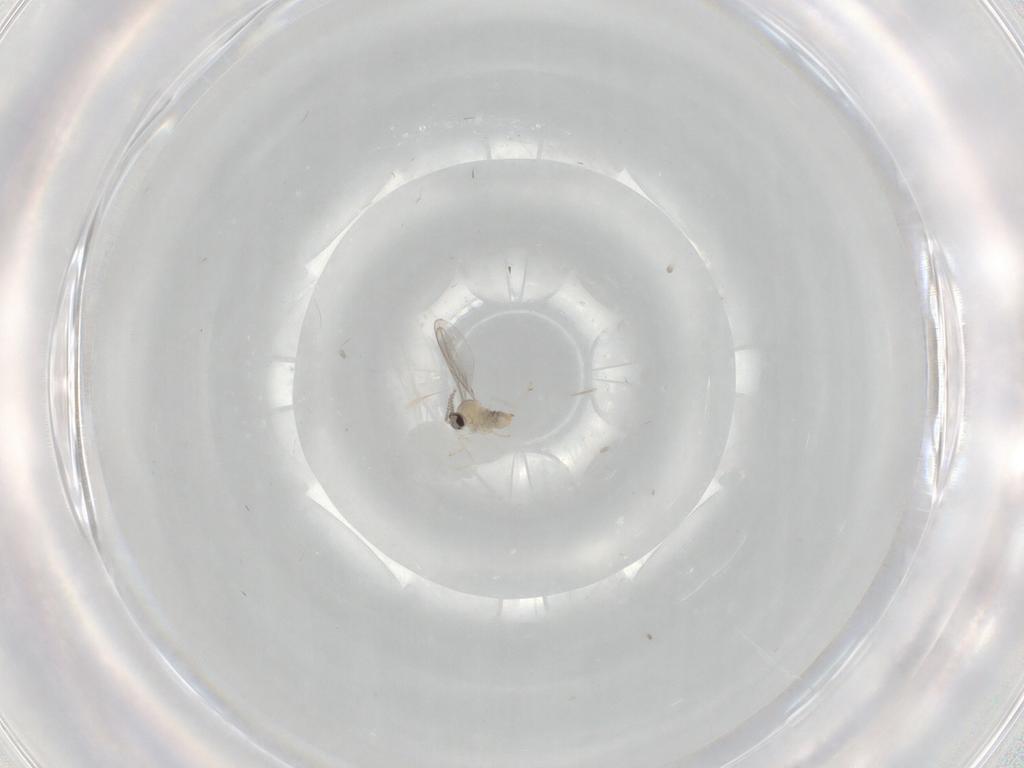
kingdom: Animalia
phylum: Arthropoda
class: Insecta
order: Diptera
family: Cecidomyiidae
